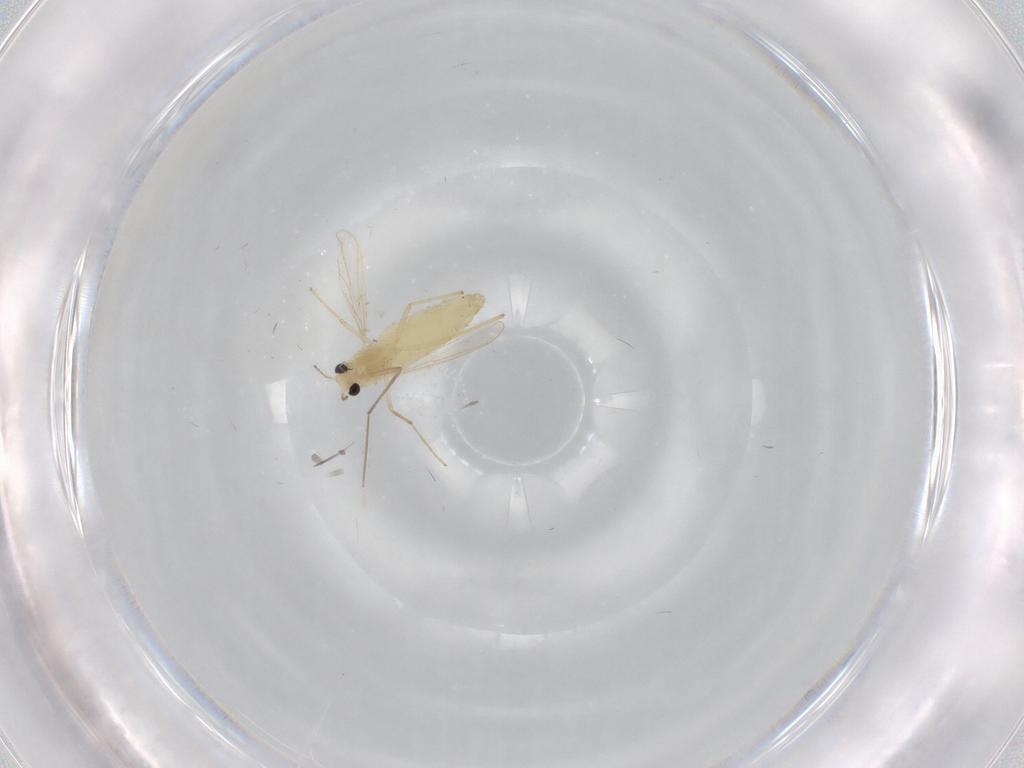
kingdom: Animalia
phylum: Arthropoda
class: Insecta
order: Diptera
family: Chironomidae
